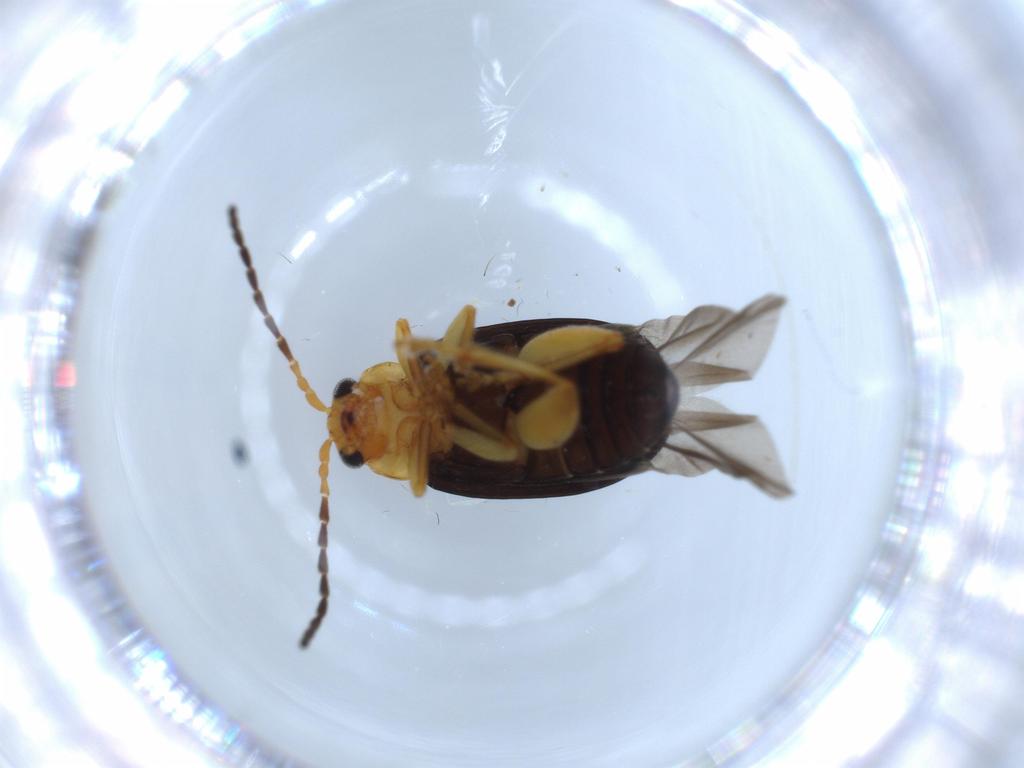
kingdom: Animalia
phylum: Arthropoda
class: Insecta
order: Coleoptera
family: Chrysomelidae
